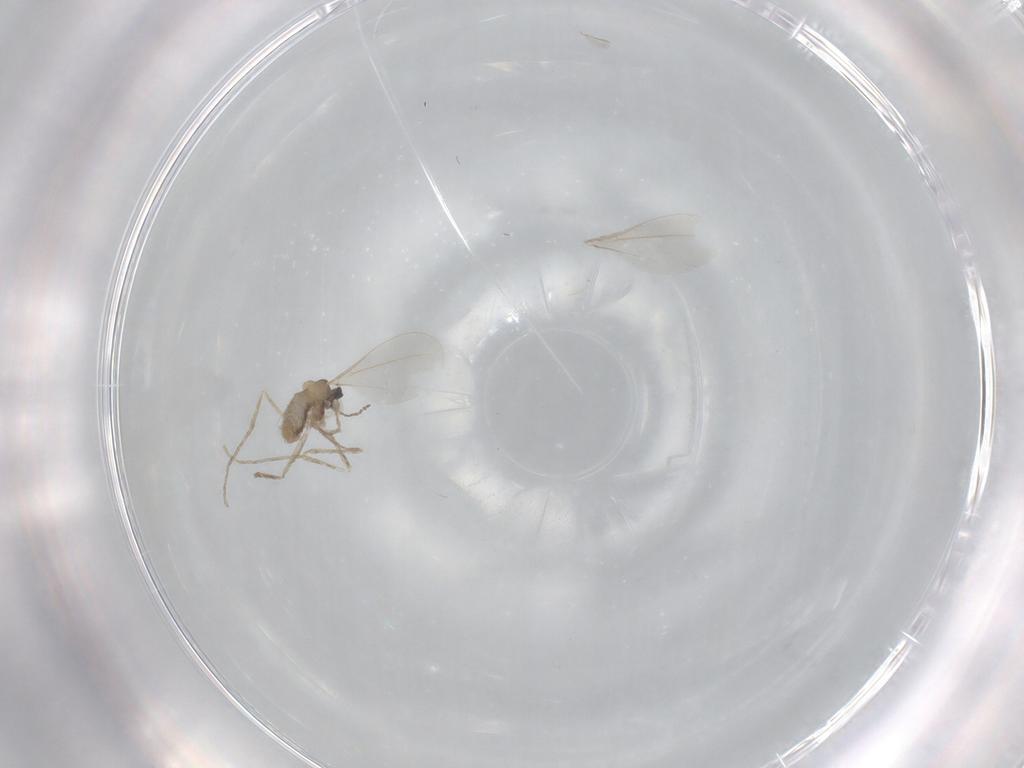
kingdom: Animalia
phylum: Arthropoda
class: Insecta
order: Diptera
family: Cecidomyiidae
